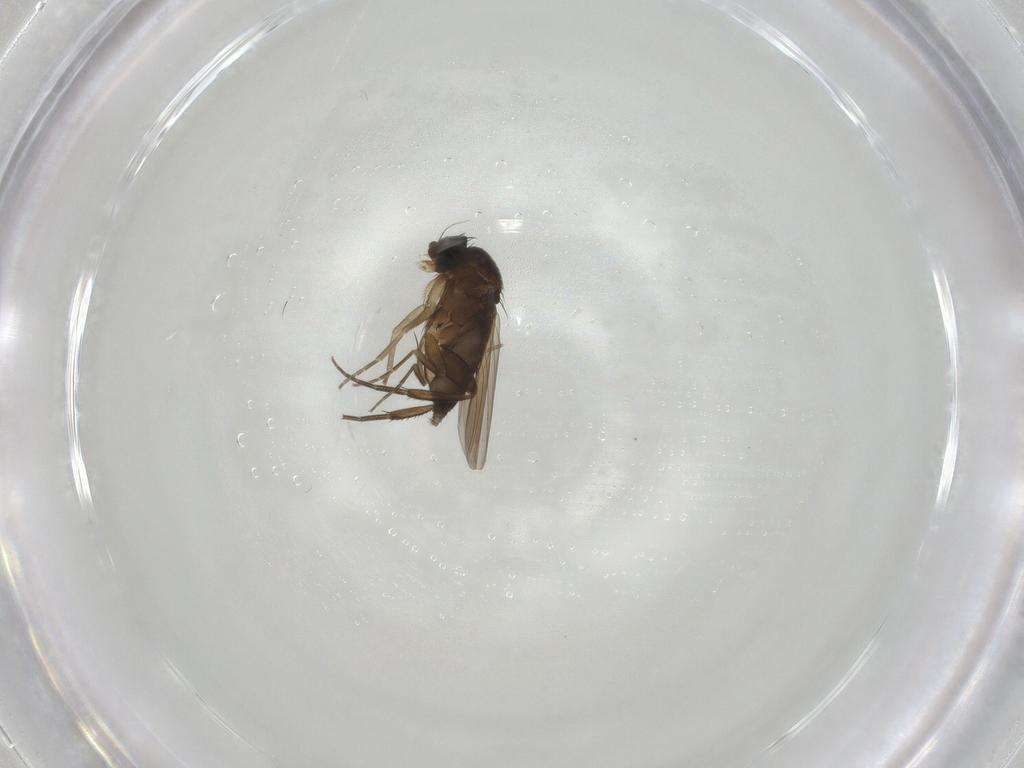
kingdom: Animalia
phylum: Arthropoda
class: Insecta
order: Diptera
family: Phoridae
